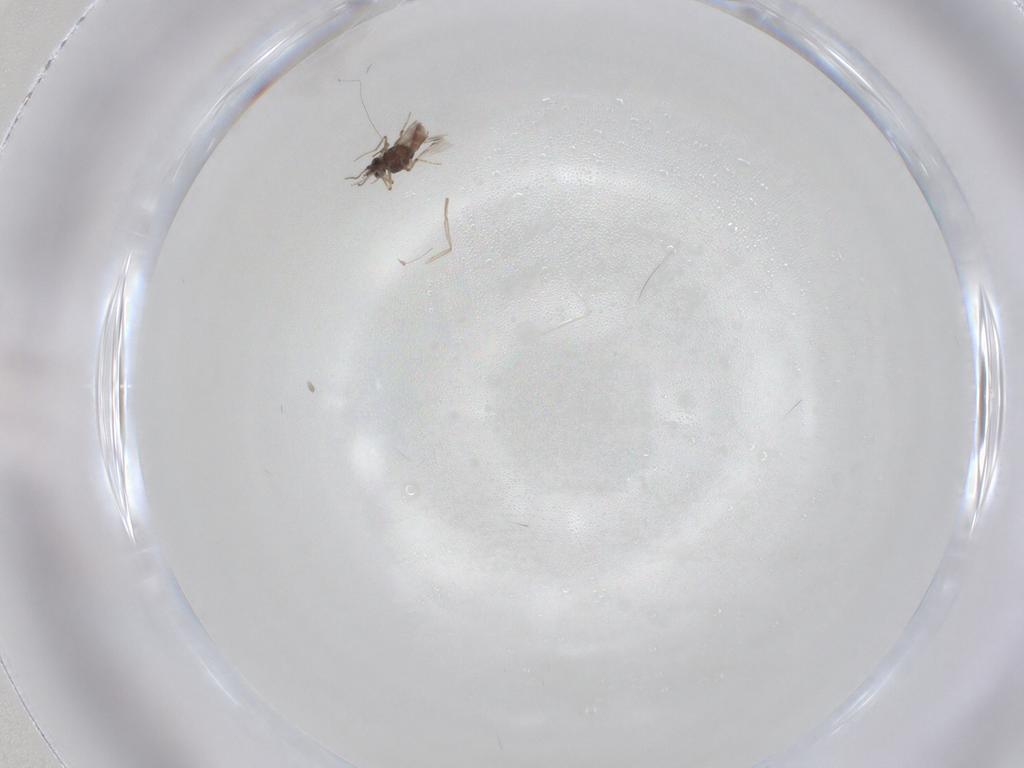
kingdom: Animalia
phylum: Arthropoda
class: Insecta
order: Diptera
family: Psychodidae
